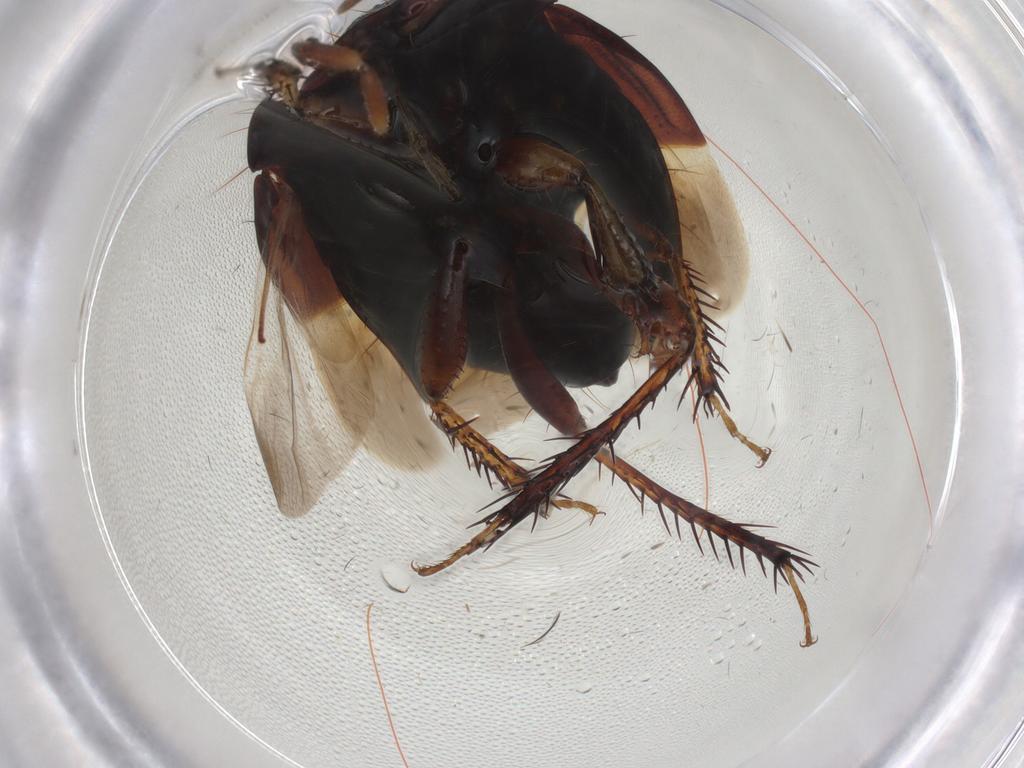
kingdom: Animalia
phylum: Arthropoda
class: Insecta
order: Hemiptera
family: Cydnidae
